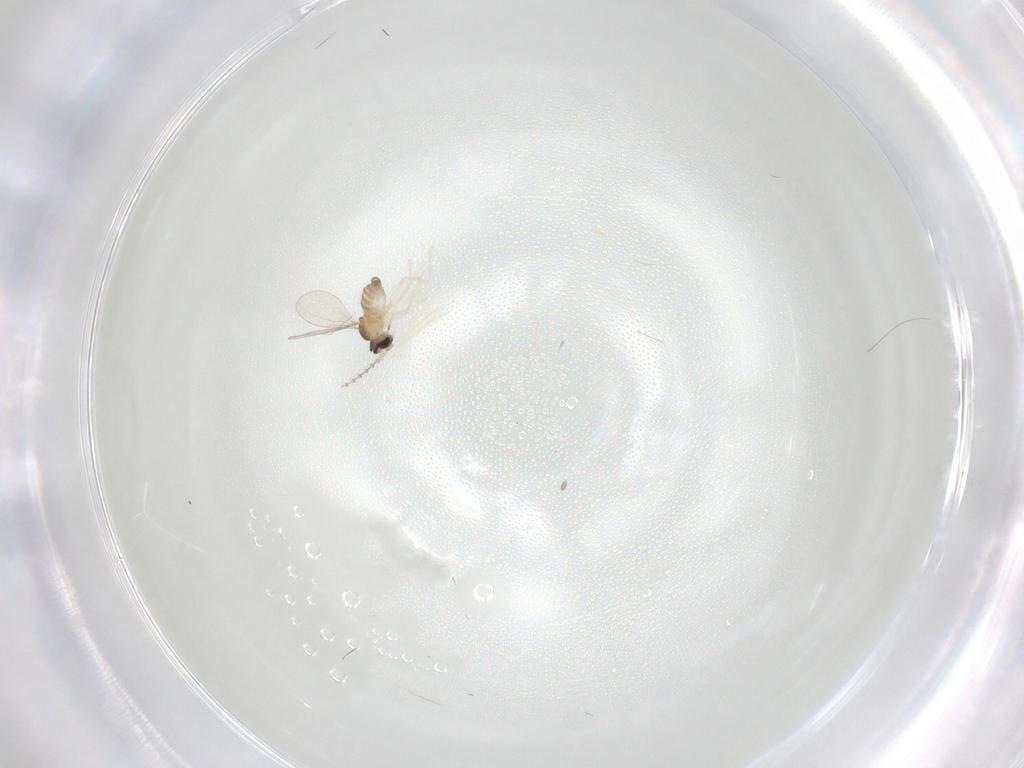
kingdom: Animalia
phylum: Arthropoda
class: Insecta
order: Diptera
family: Cecidomyiidae
